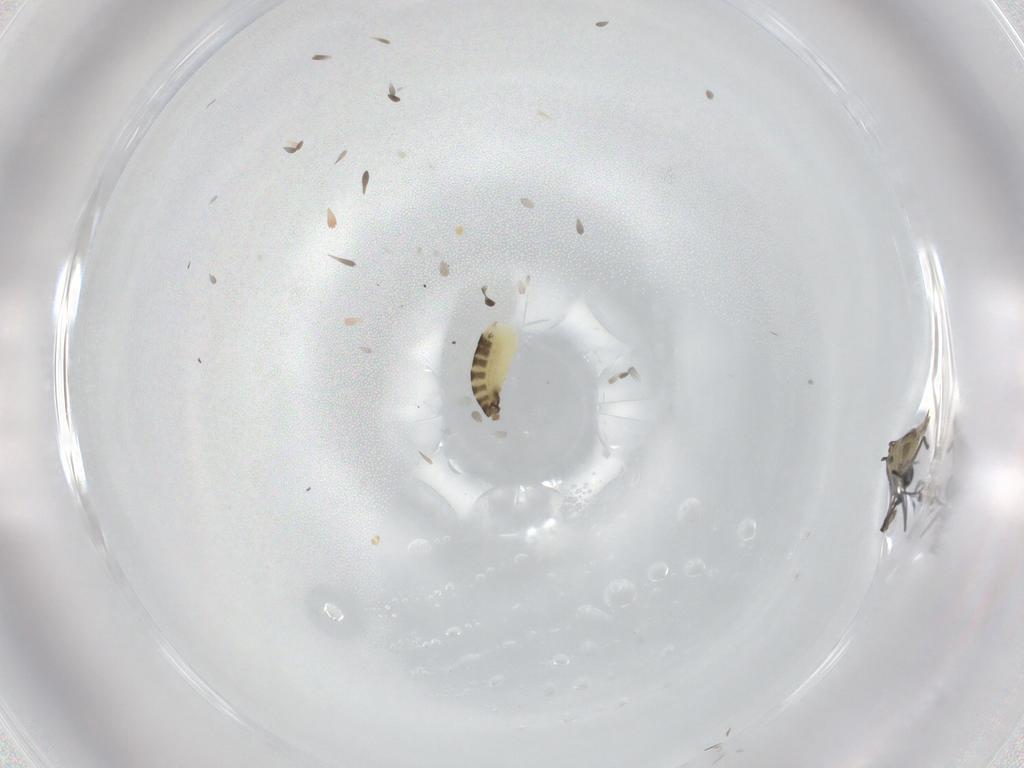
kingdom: Animalia
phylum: Arthropoda
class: Insecta
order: Diptera
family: Chironomidae
